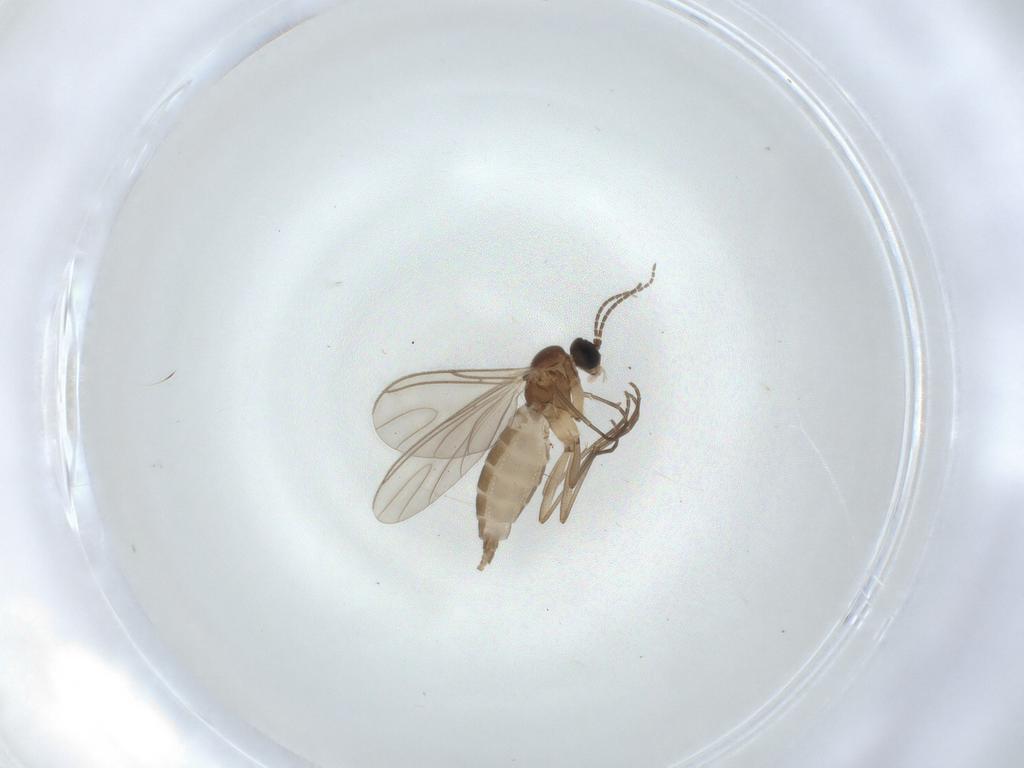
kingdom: Animalia
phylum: Arthropoda
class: Insecta
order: Diptera
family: Sciaridae
